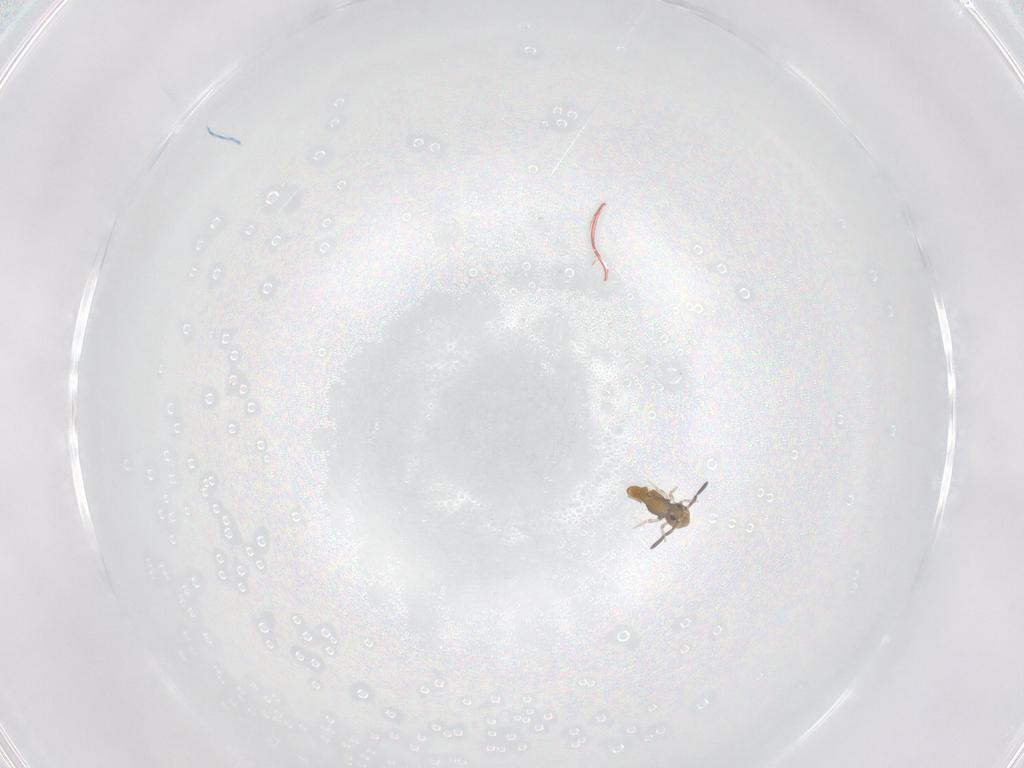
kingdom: Animalia
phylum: Arthropoda
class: Collembola
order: Symphypleona
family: Katiannidae
